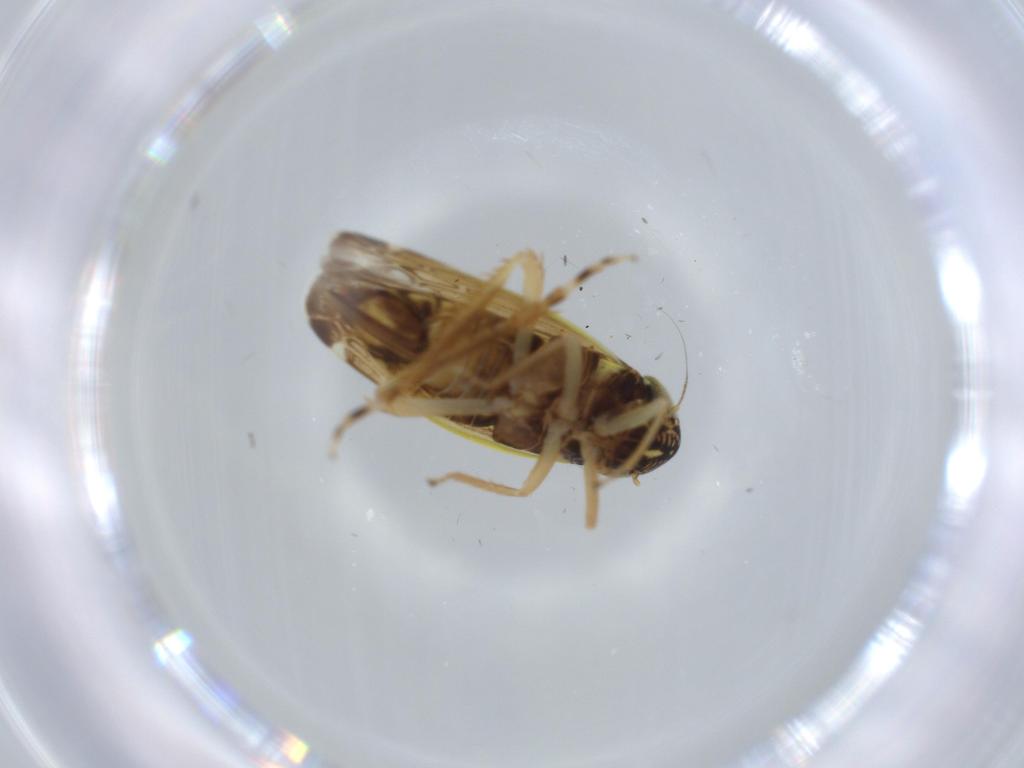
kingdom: Animalia
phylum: Arthropoda
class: Insecta
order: Hemiptera
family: Cicadellidae
